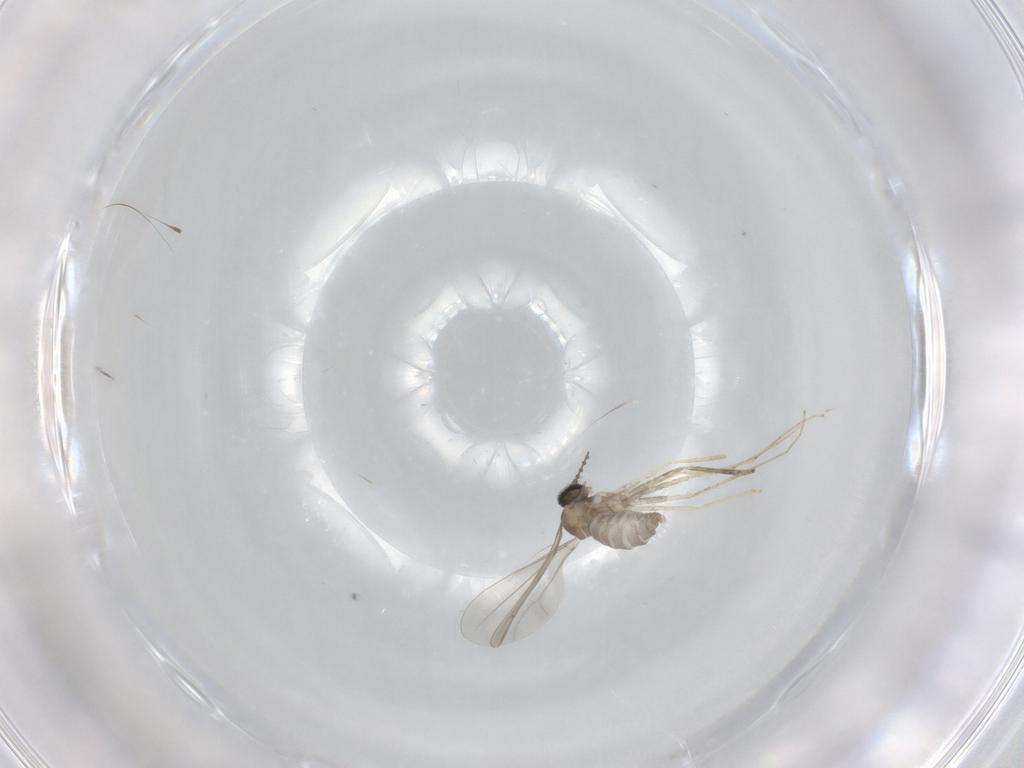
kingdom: Animalia
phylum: Arthropoda
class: Insecta
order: Diptera
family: Cecidomyiidae
